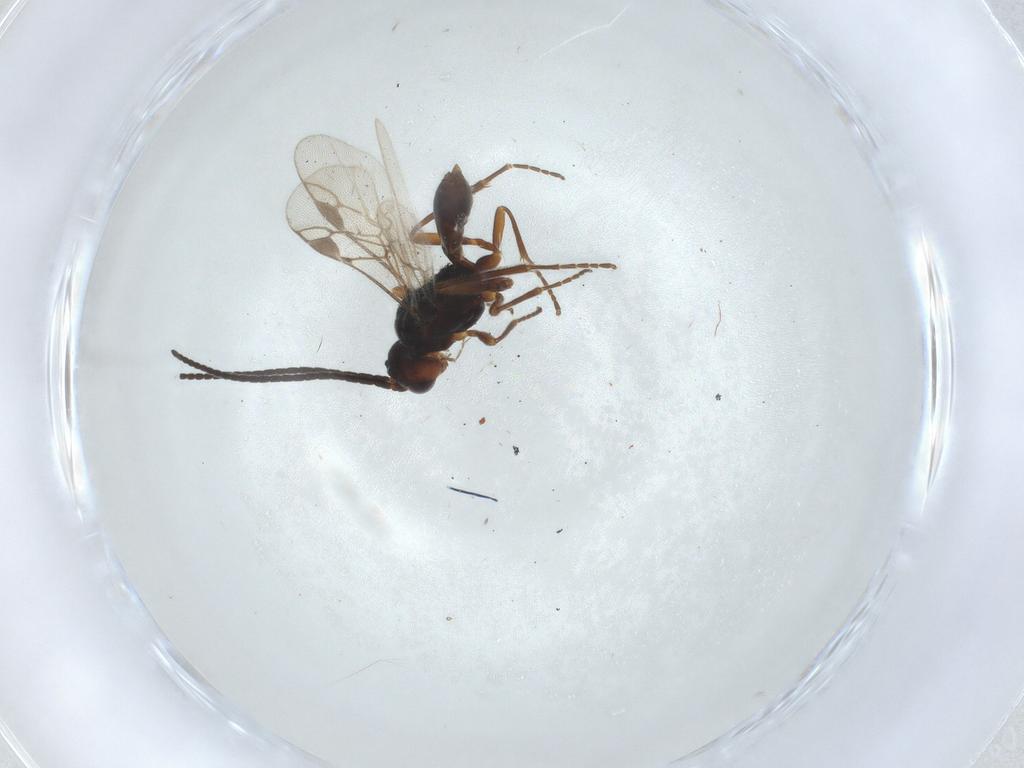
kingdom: Animalia
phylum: Arthropoda
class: Insecta
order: Hymenoptera
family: Braconidae
